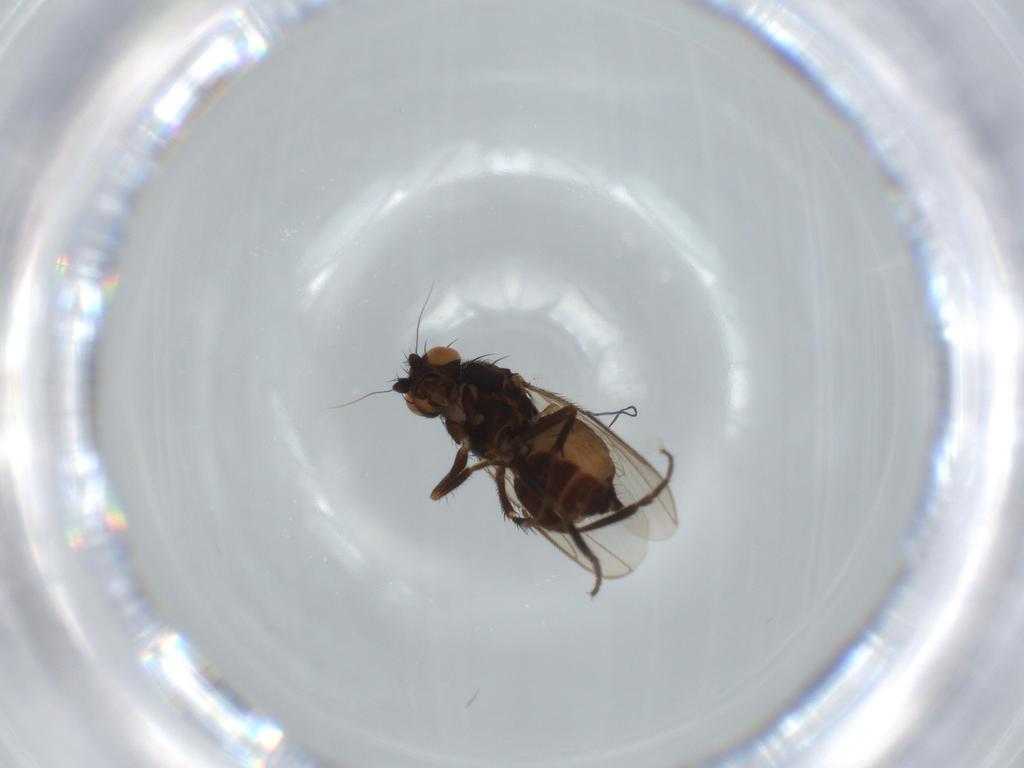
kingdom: Animalia
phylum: Arthropoda
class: Insecta
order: Diptera
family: Sphaeroceridae
